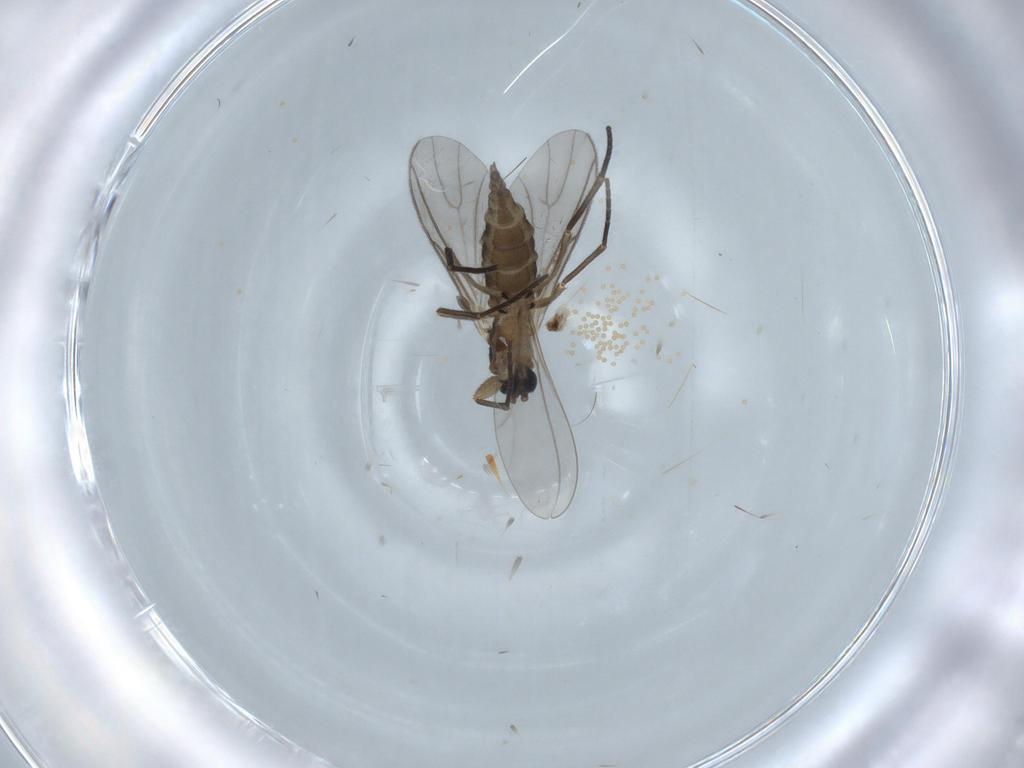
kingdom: Animalia
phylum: Arthropoda
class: Insecta
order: Diptera
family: Sciaridae
